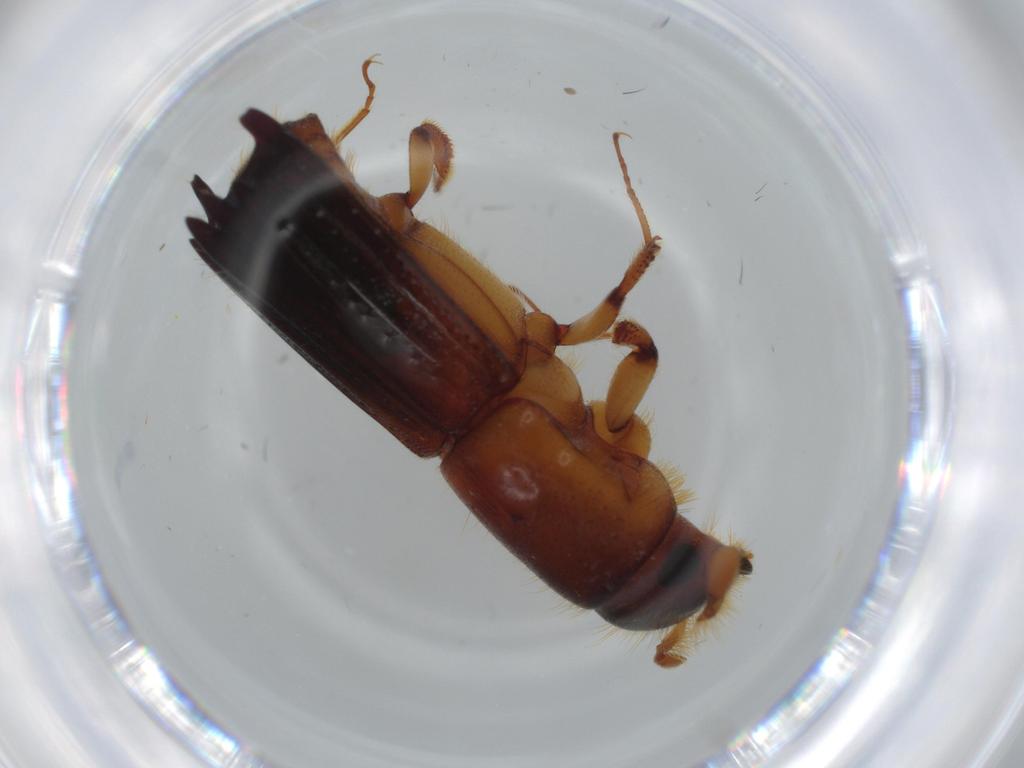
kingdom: Animalia
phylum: Arthropoda
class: Insecta
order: Coleoptera
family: Curculionidae
